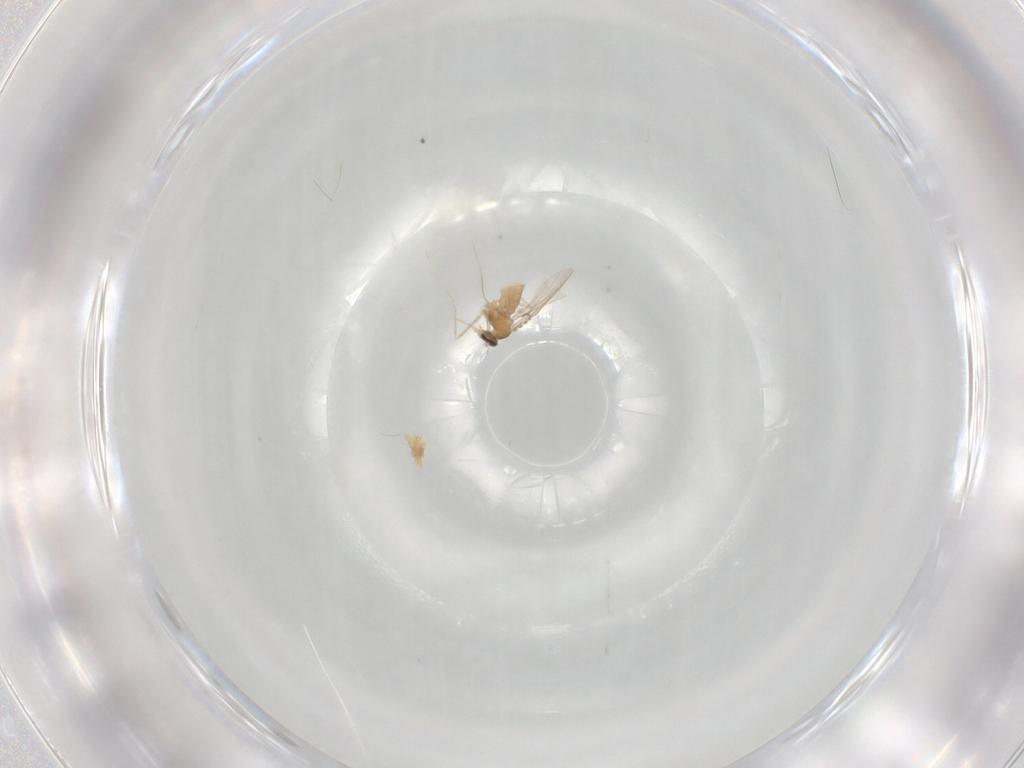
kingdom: Animalia
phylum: Arthropoda
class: Insecta
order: Diptera
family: Cecidomyiidae
